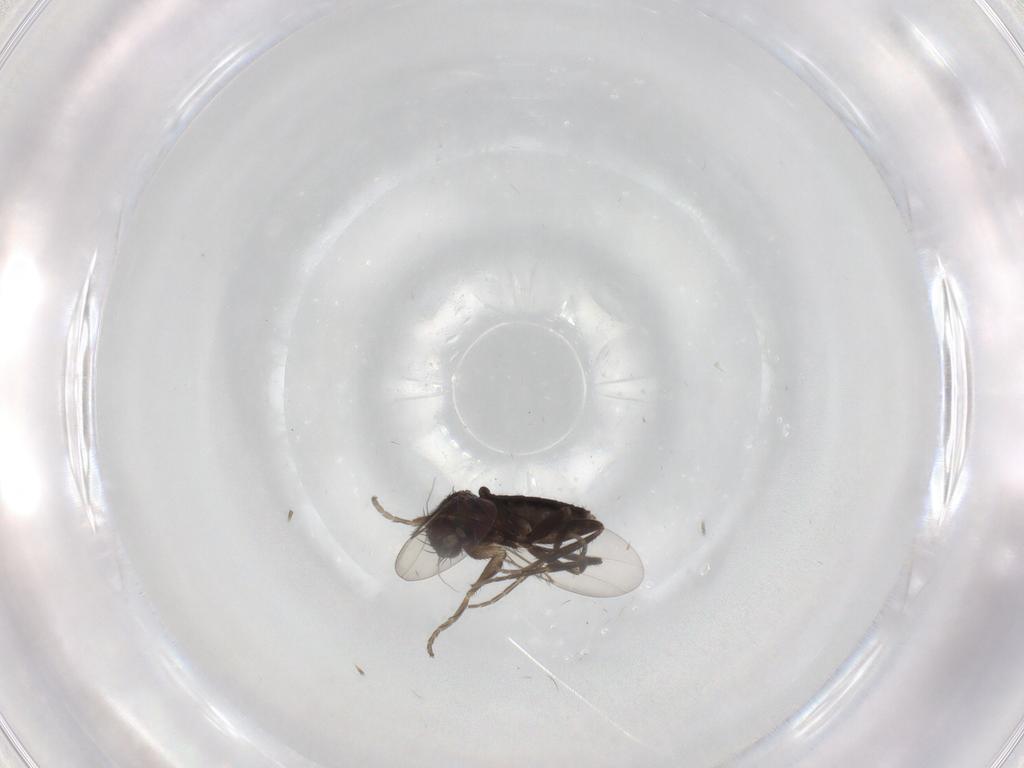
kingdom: Animalia
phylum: Arthropoda
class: Insecta
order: Diptera
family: Phoridae
